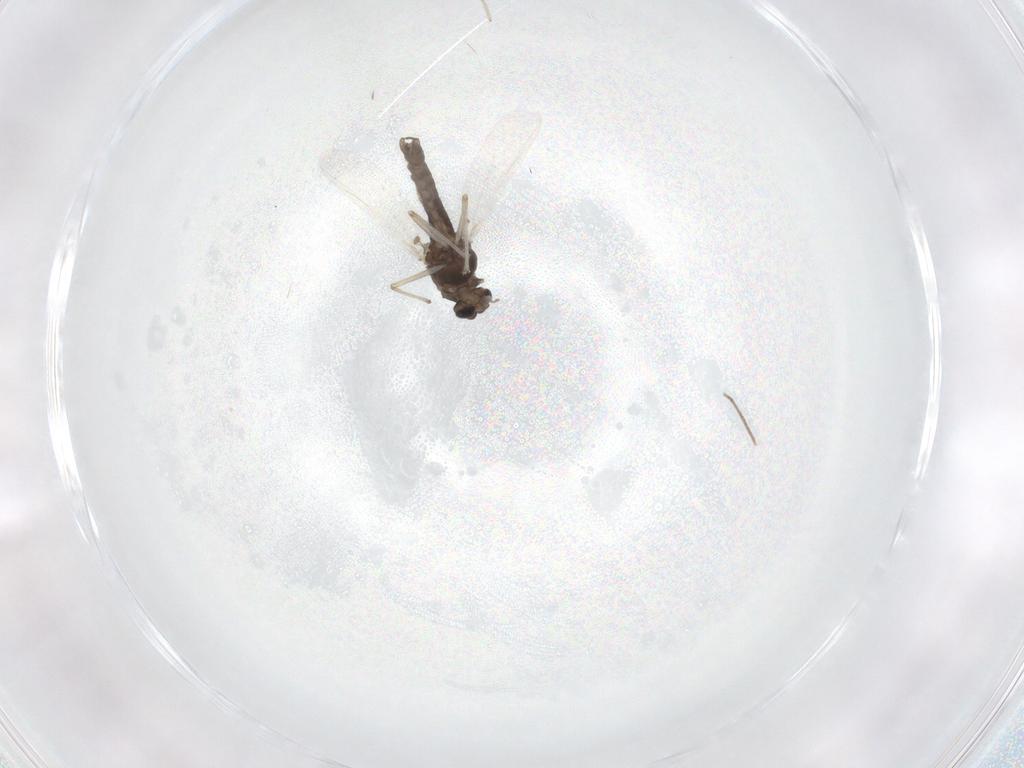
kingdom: Animalia
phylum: Arthropoda
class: Insecta
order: Diptera
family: Chironomidae
